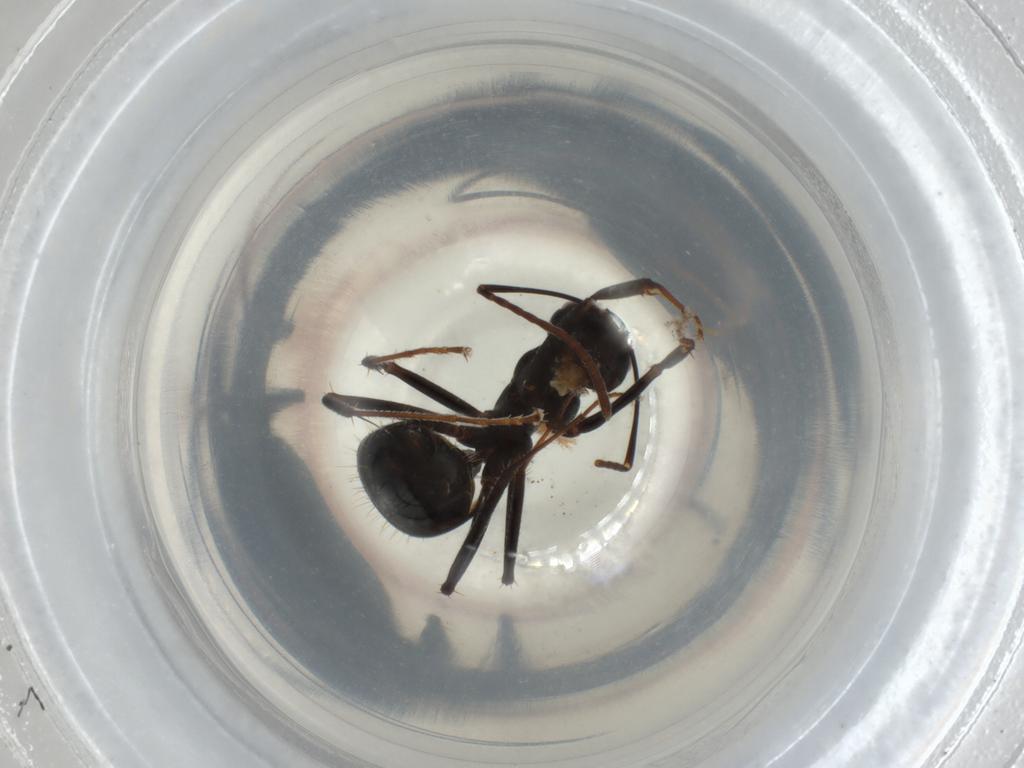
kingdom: Animalia
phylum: Arthropoda
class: Insecta
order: Hymenoptera
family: Formicidae
